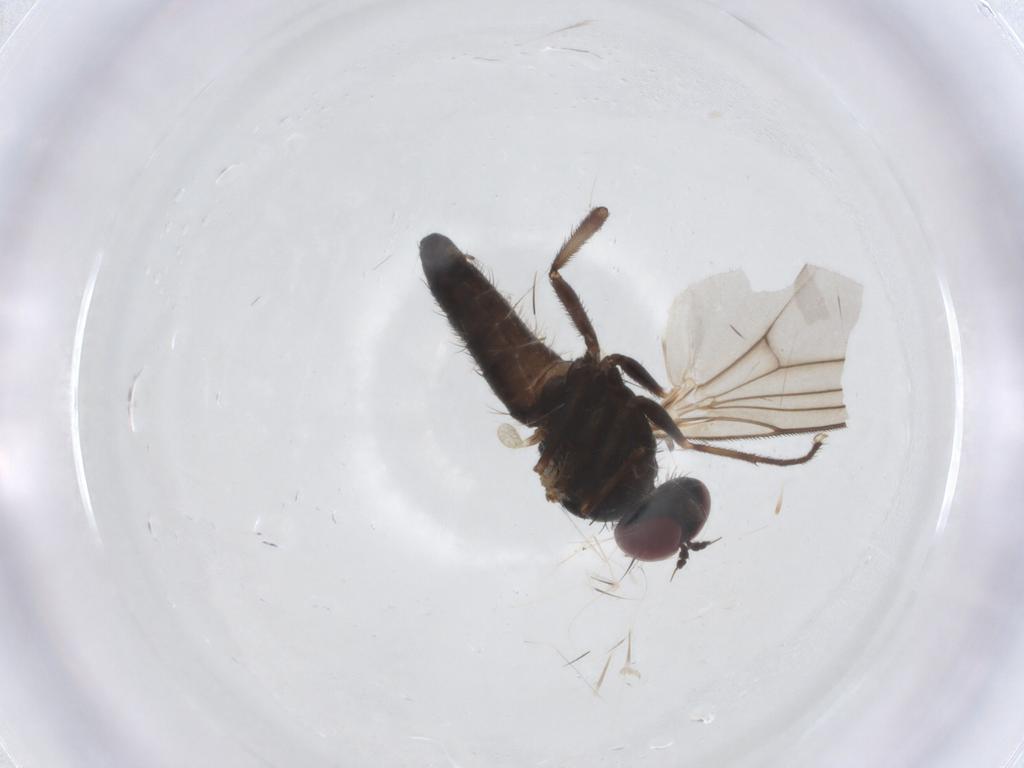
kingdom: Animalia
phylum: Arthropoda
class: Insecta
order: Diptera
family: Dolichopodidae
